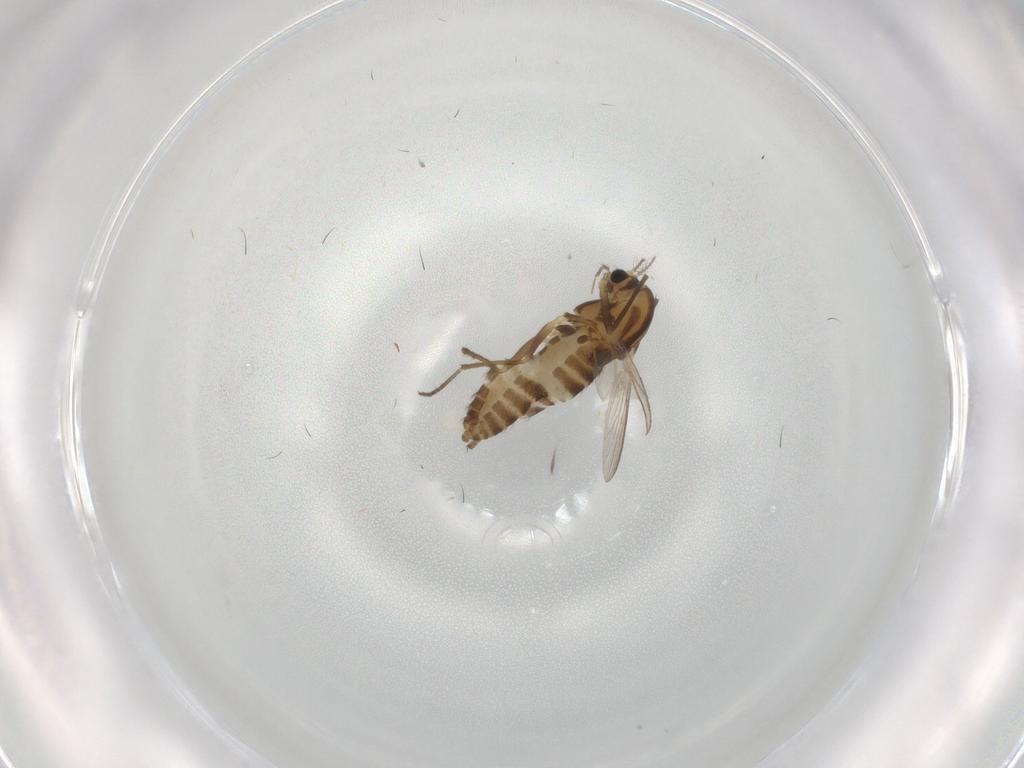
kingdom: Animalia
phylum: Arthropoda
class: Insecta
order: Diptera
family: Chironomidae
